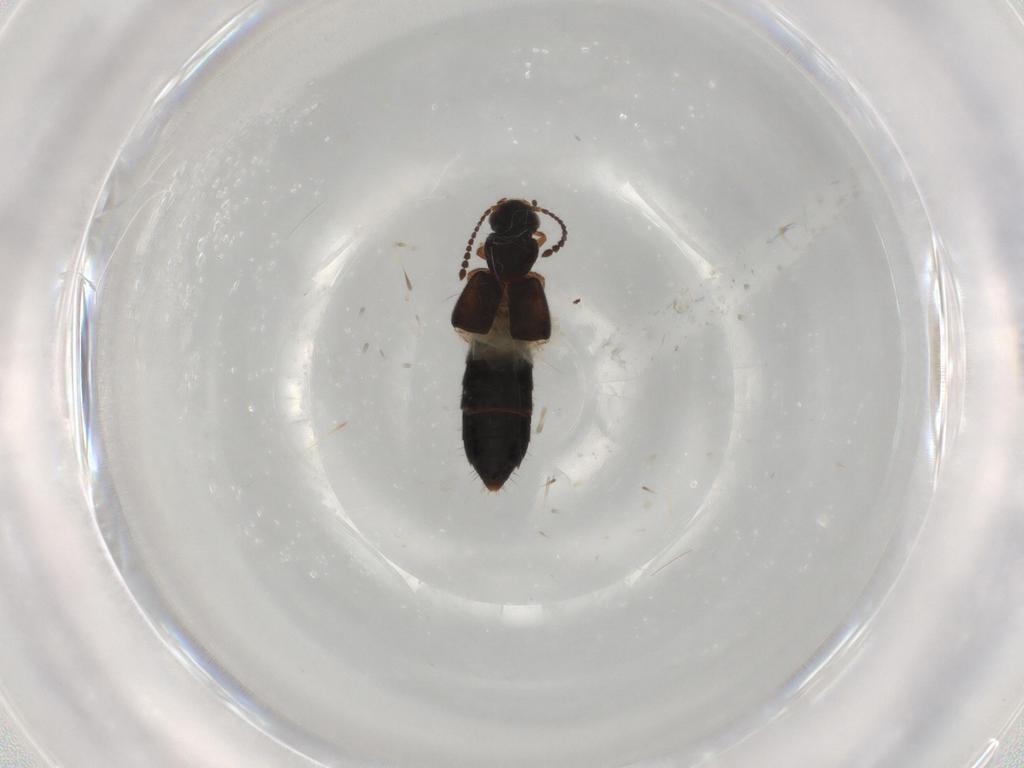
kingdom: Animalia
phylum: Arthropoda
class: Insecta
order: Coleoptera
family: Staphylinidae
